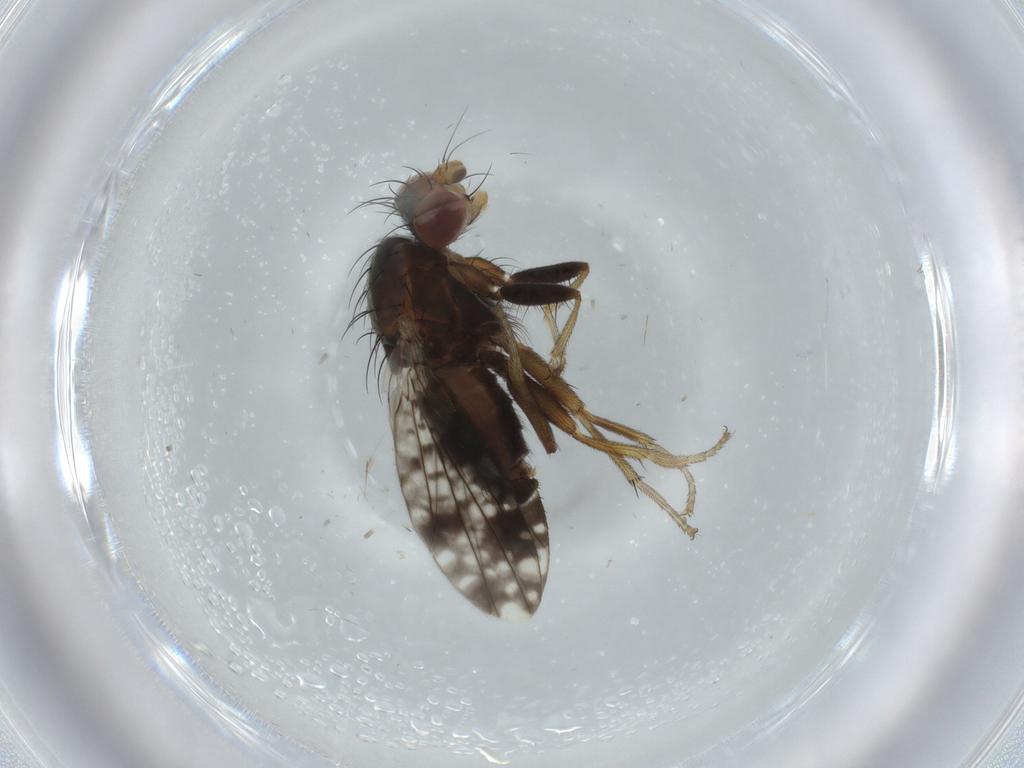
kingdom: Animalia
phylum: Arthropoda
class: Insecta
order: Diptera
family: Tephritidae
